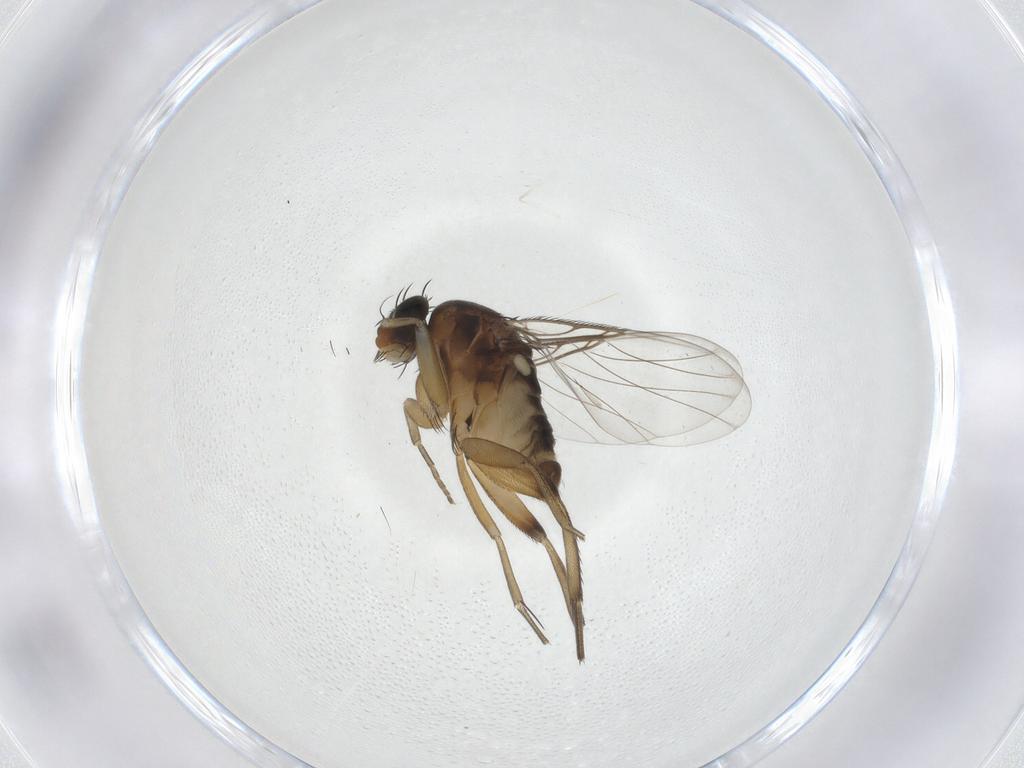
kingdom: Animalia
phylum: Arthropoda
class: Insecta
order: Diptera
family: Phoridae
